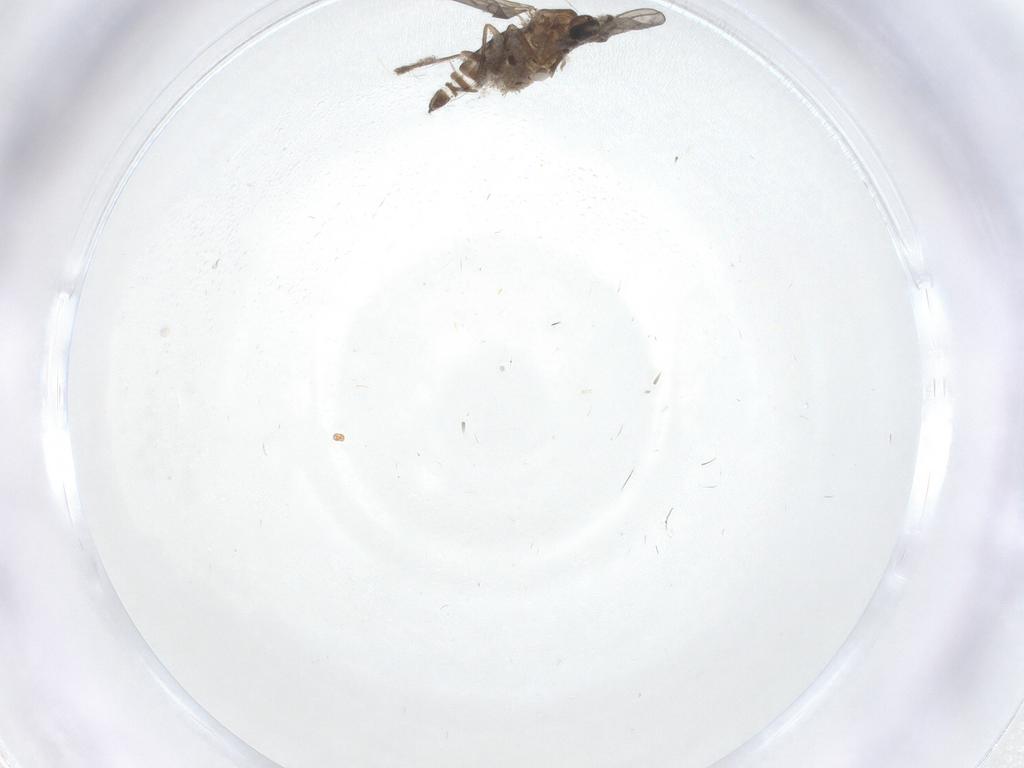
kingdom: Animalia
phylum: Arthropoda
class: Insecta
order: Diptera
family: Sciaridae
